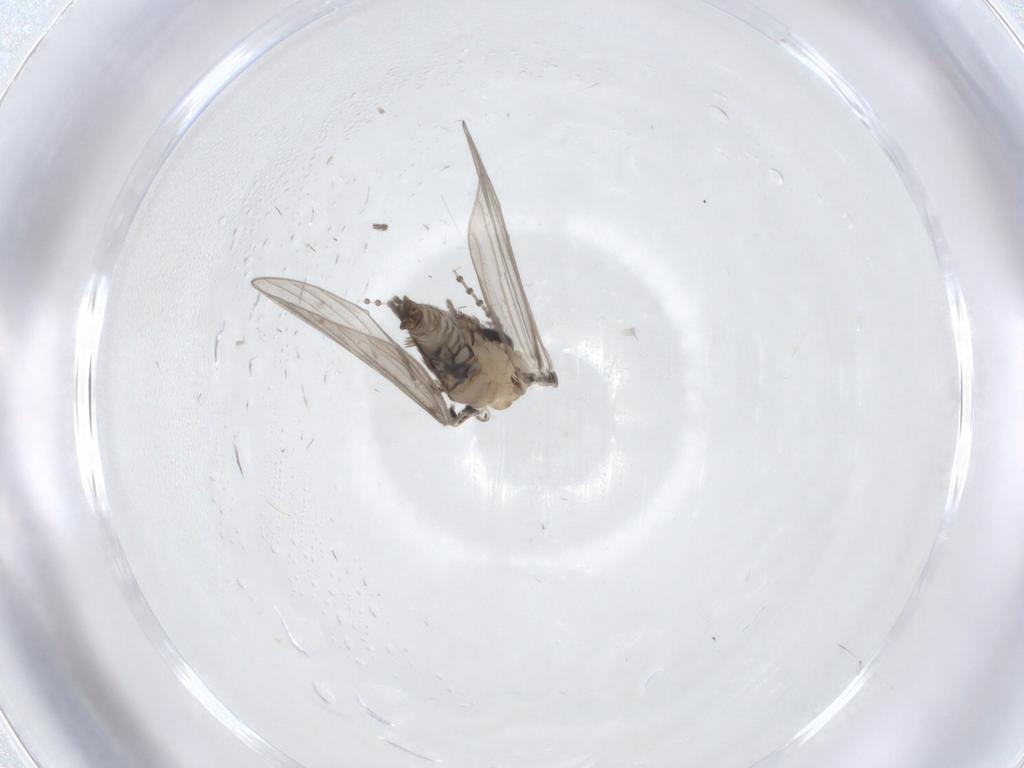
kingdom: Animalia
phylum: Arthropoda
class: Insecta
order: Diptera
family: Psychodidae
